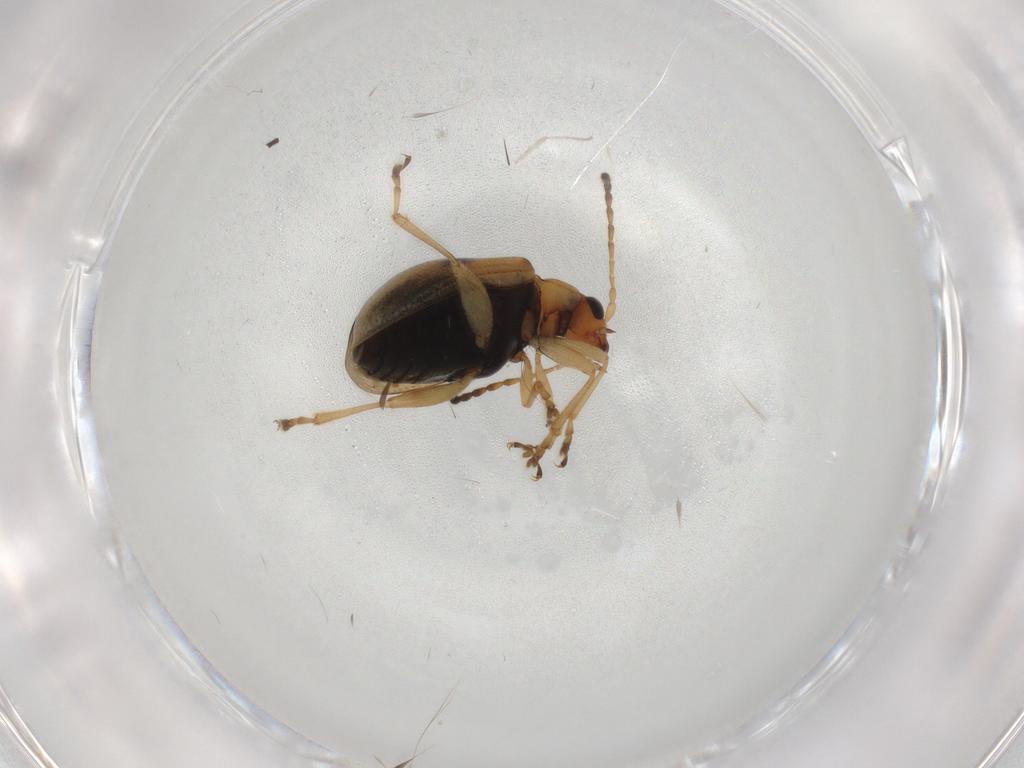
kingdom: Animalia
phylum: Arthropoda
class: Insecta
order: Coleoptera
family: Chrysomelidae
